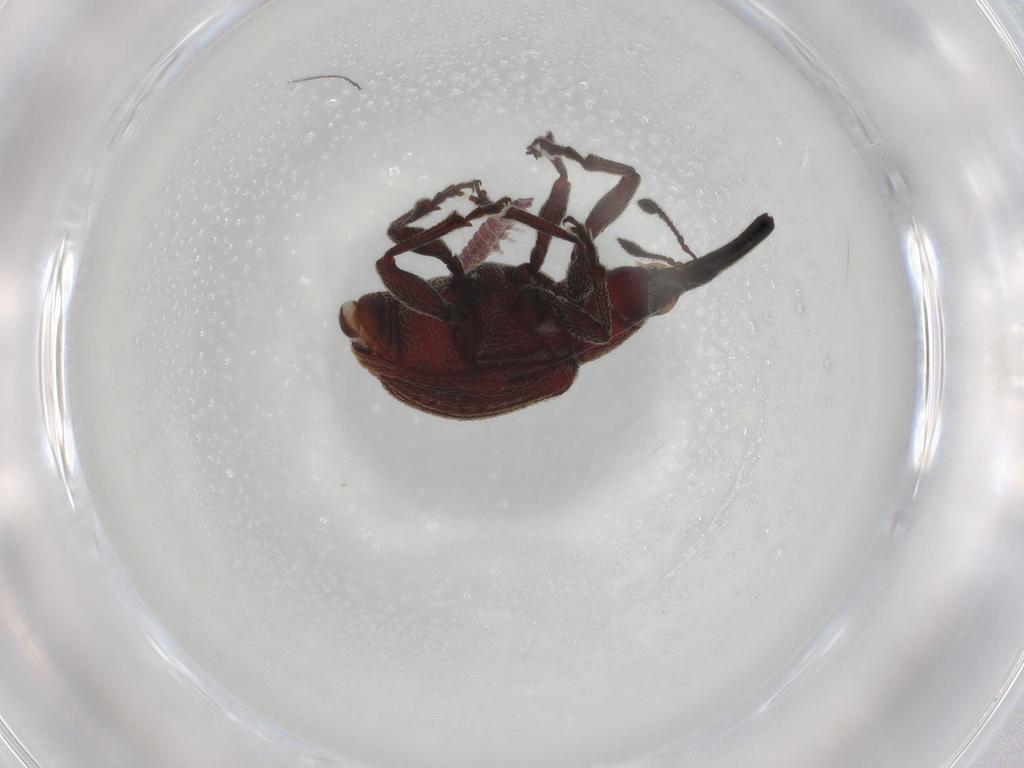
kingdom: Animalia
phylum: Arthropoda
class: Insecta
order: Coleoptera
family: Brentidae
